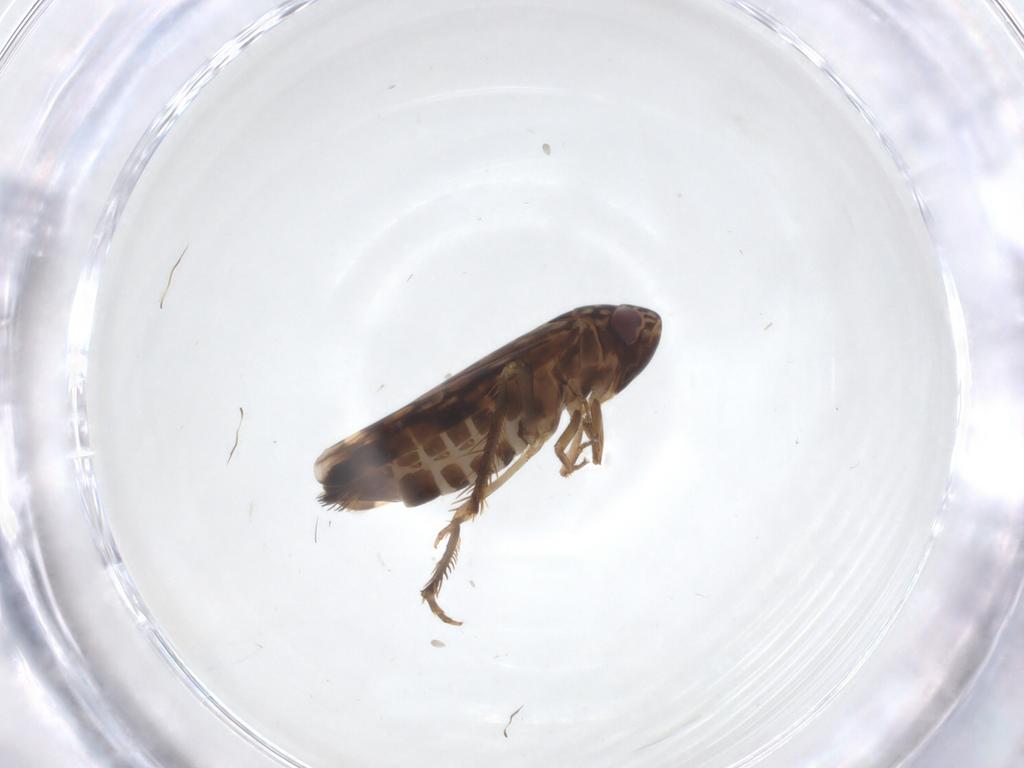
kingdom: Animalia
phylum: Arthropoda
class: Insecta
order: Hemiptera
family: Cicadellidae
